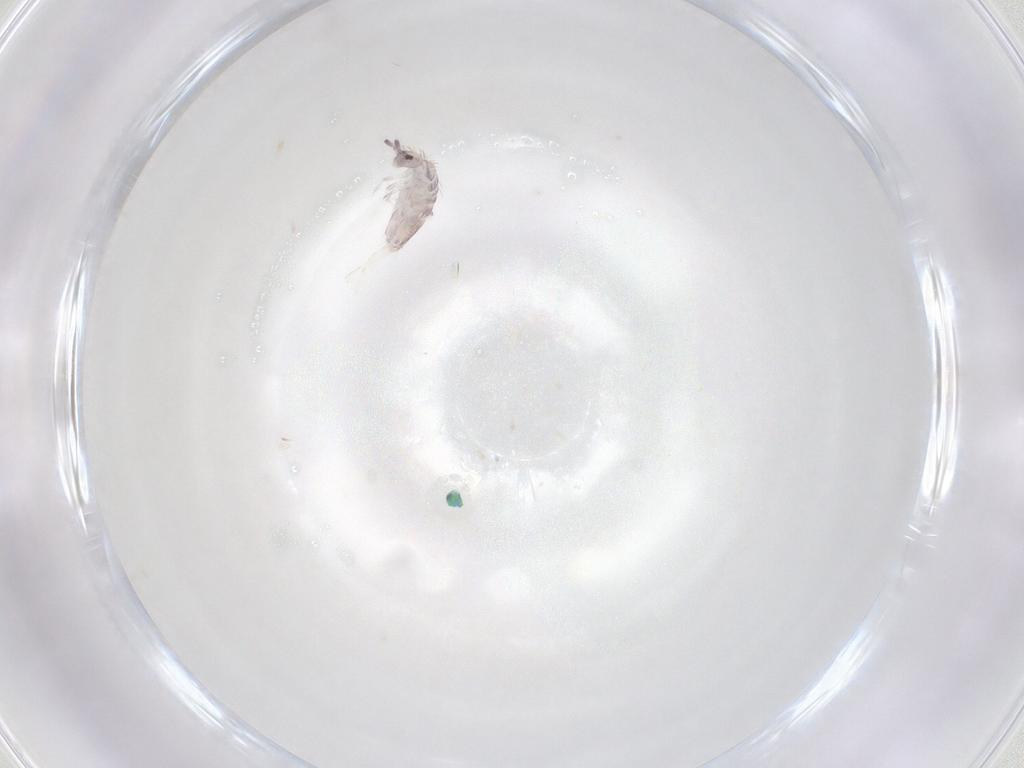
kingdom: Animalia
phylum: Arthropoda
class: Collembola
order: Poduromorpha
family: Hypogastruridae
